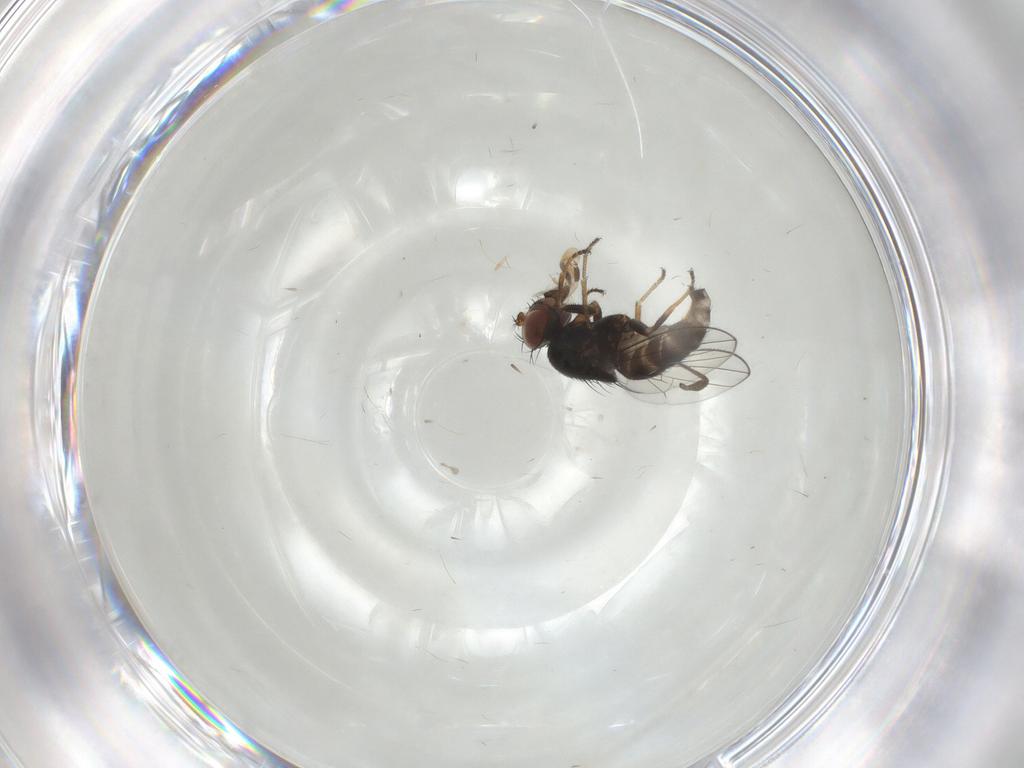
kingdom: Animalia
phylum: Arthropoda
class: Insecta
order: Diptera
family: Ephydridae
